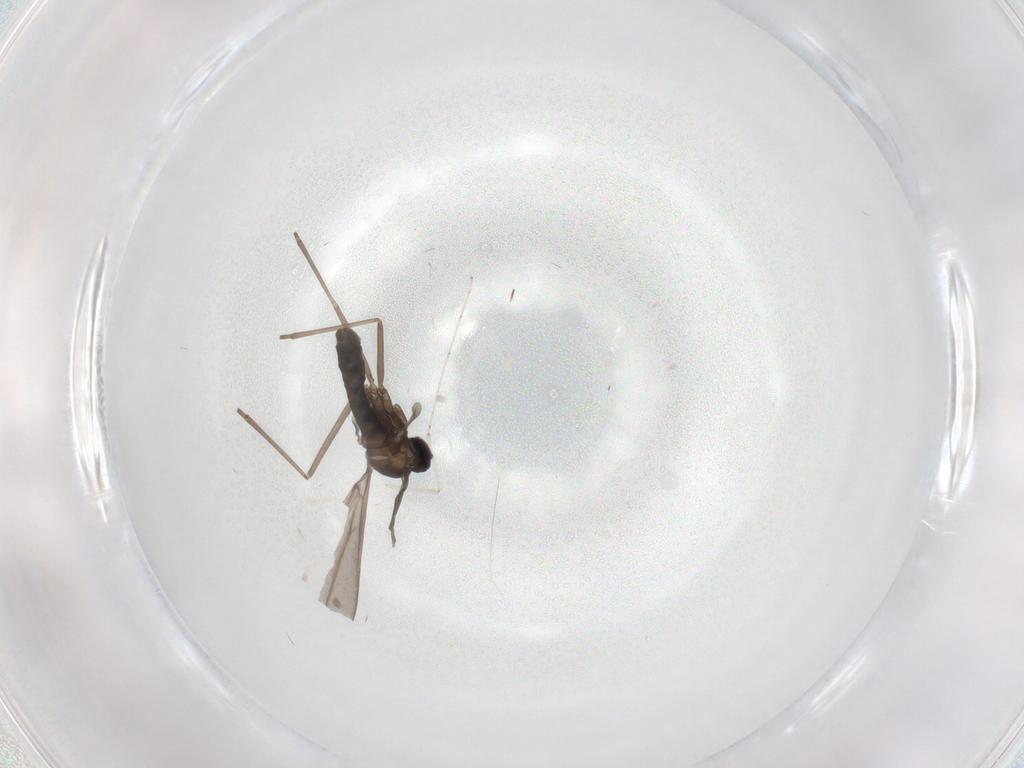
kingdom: Animalia
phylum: Arthropoda
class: Insecta
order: Diptera
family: Cecidomyiidae
